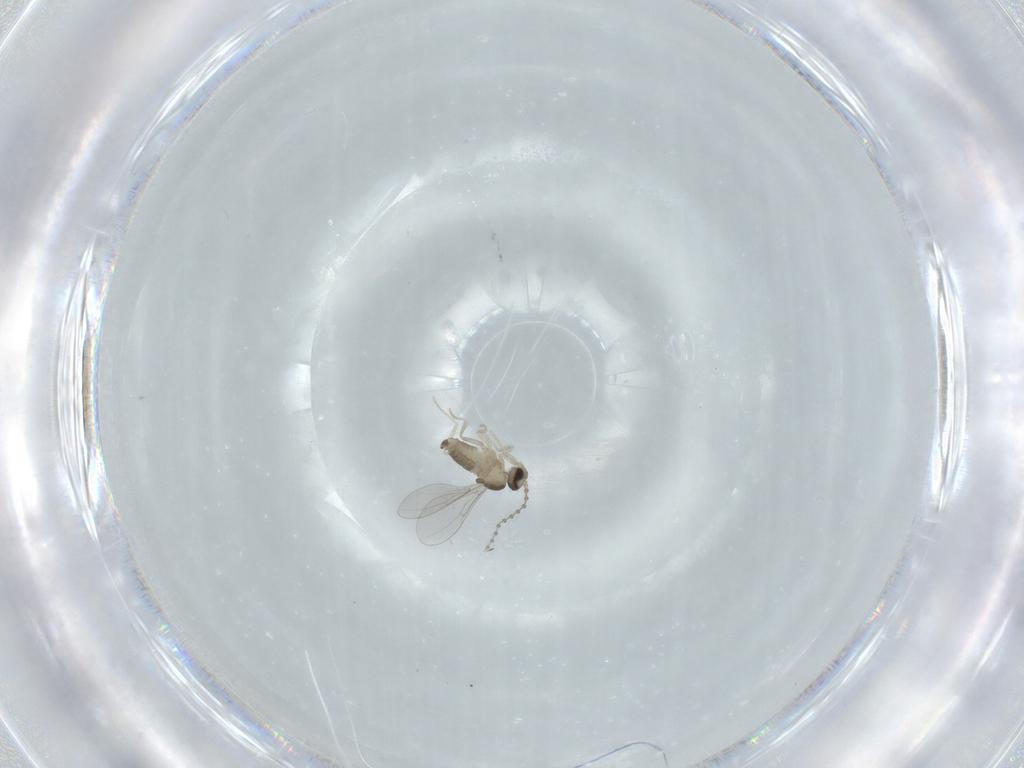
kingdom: Animalia
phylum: Arthropoda
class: Insecta
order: Diptera
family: Cecidomyiidae
